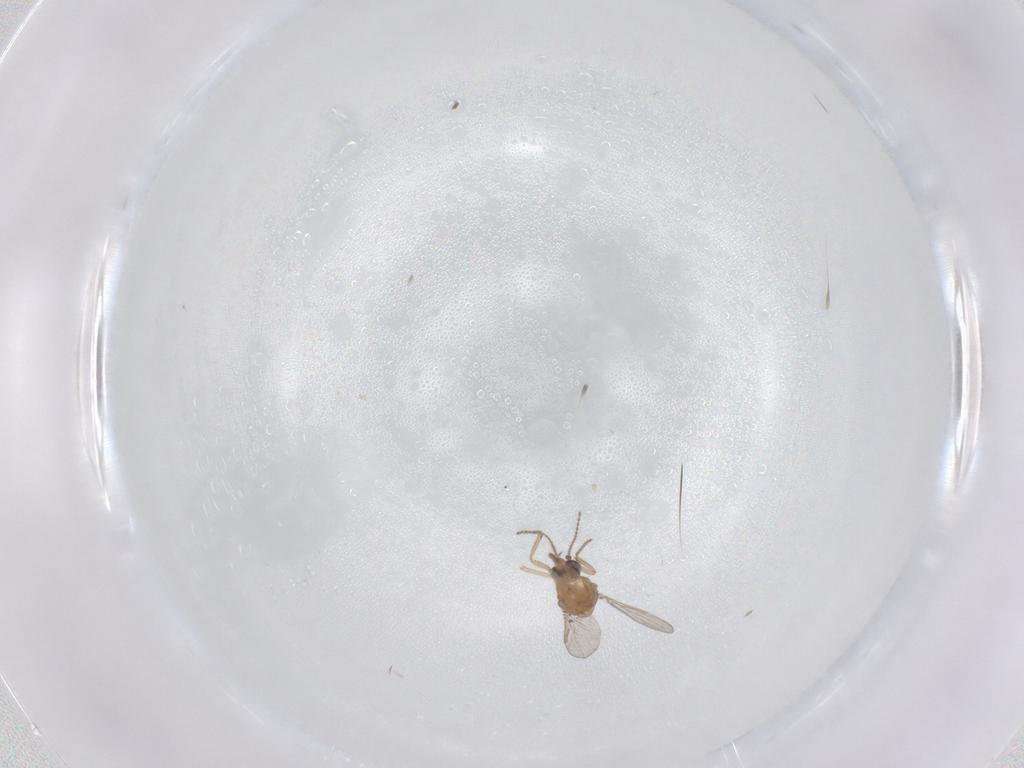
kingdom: Animalia
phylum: Arthropoda
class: Insecta
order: Diptera
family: Ceratopogonidae
